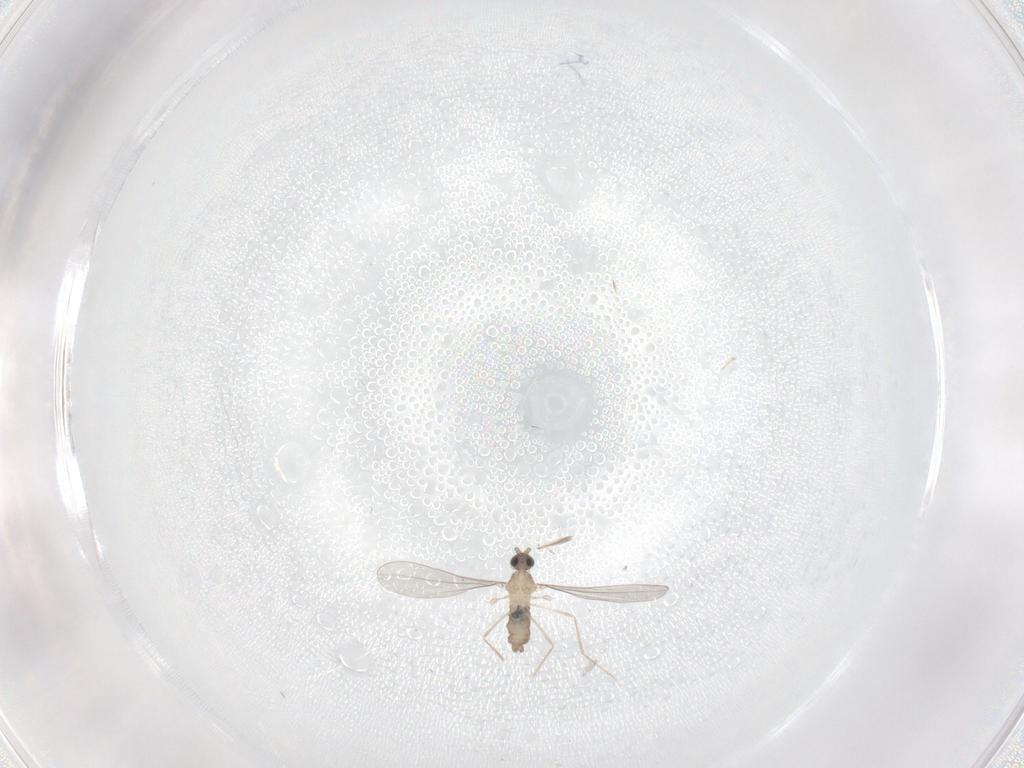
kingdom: Animalia
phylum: Arthropoda
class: Insecta
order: Diptera
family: Cecidomyiidae
